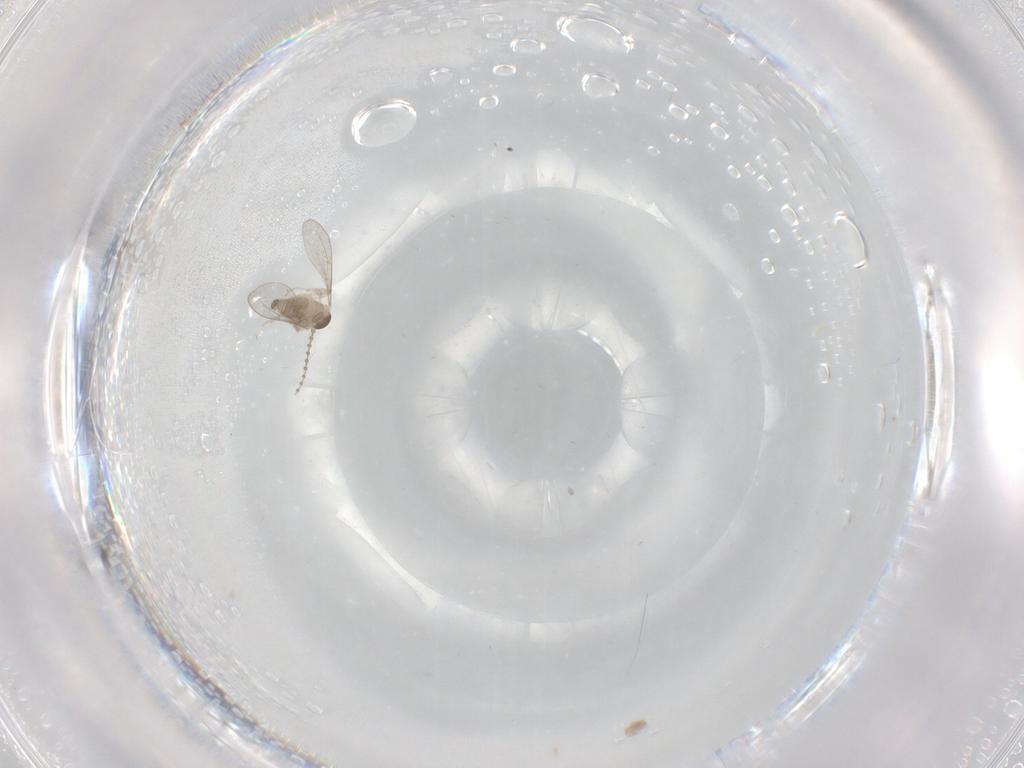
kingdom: Animalia
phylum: Arthropoda
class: Insecta
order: Diptera
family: Cecidomyiidae
